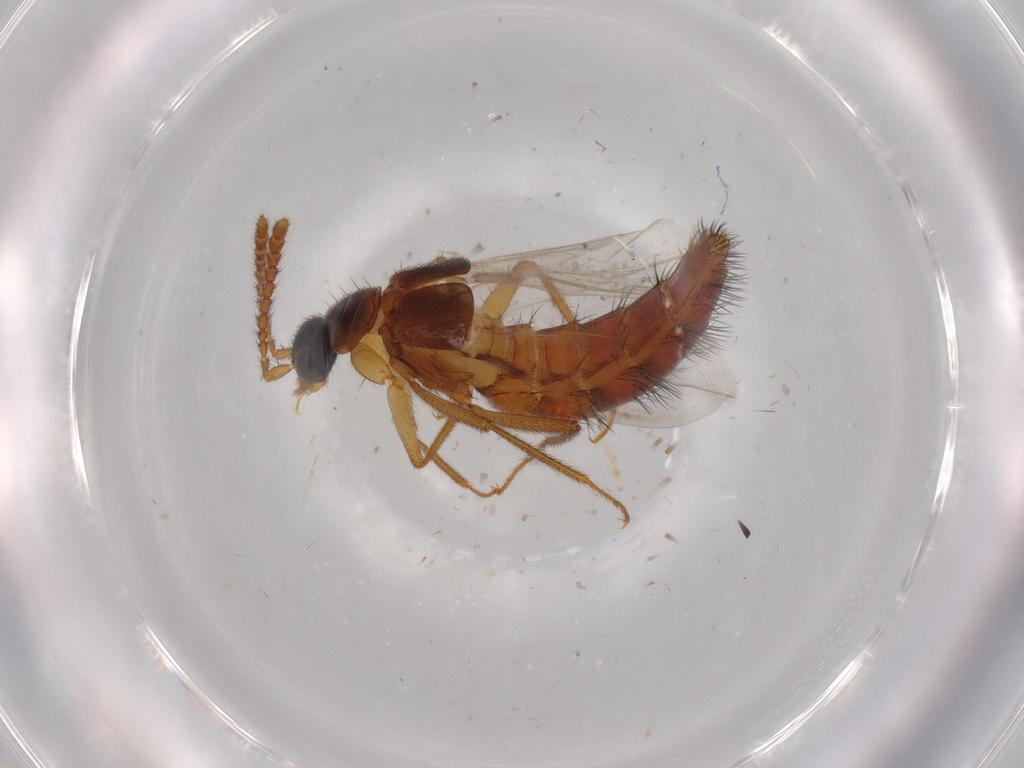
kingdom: Animalia
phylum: Arthropoda
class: Insecta
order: Coleoptera
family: Staphylinidae
